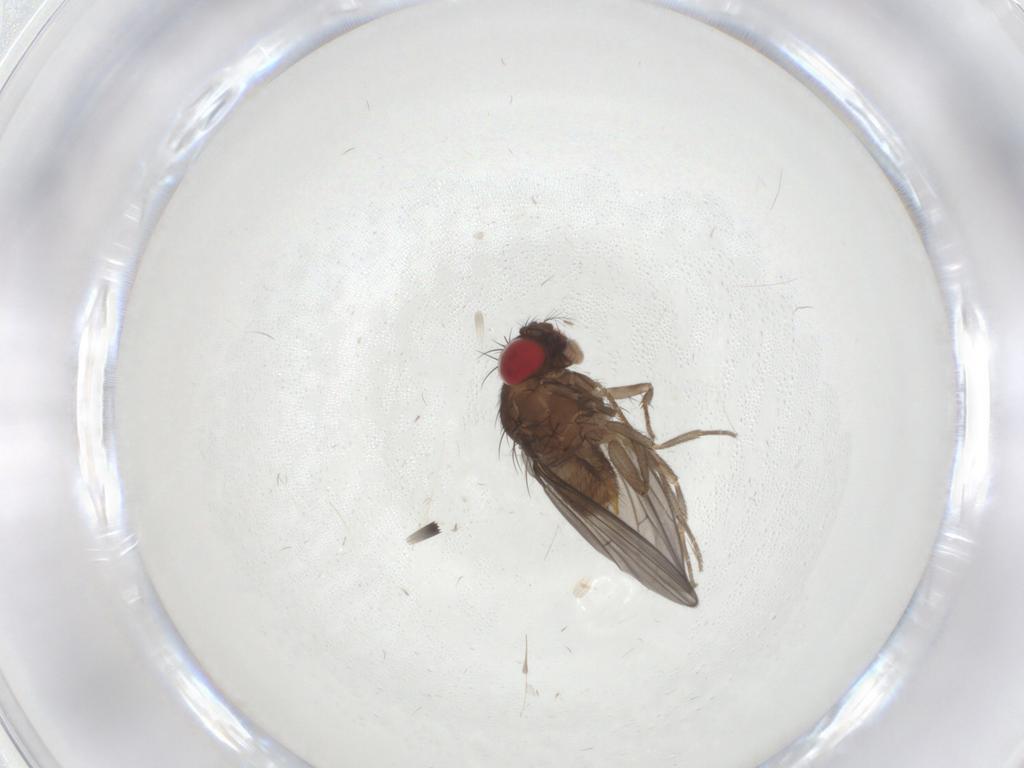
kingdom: Animalia
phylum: Arthropoda
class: Insecta
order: Diptera
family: Drosophilidae
